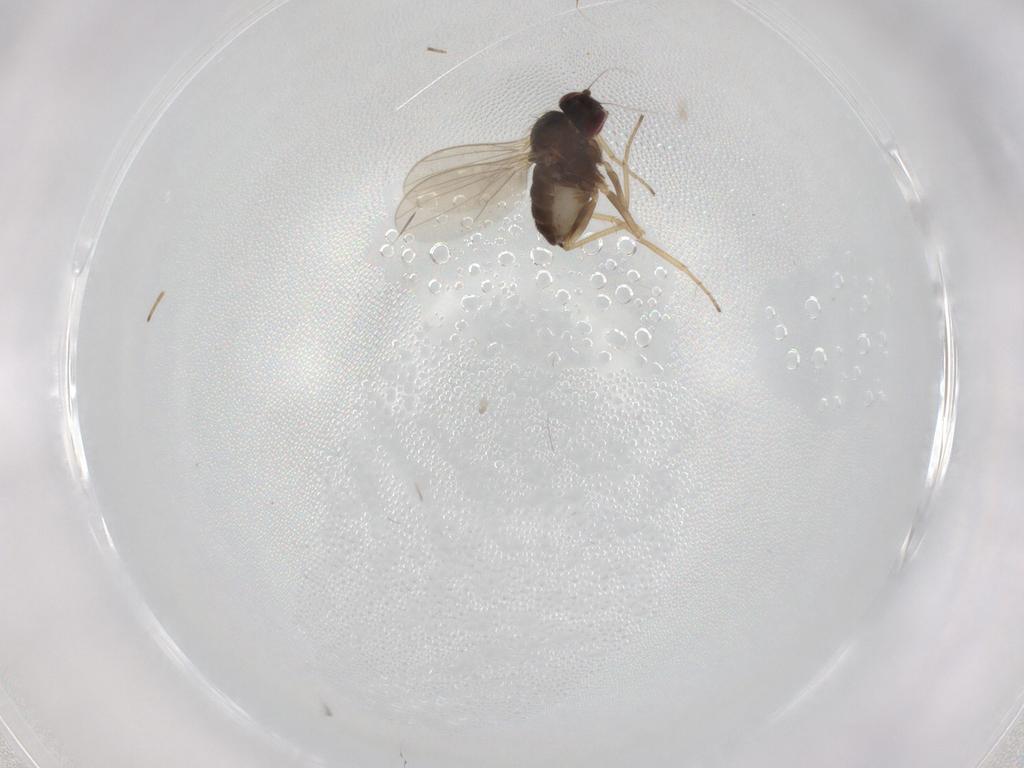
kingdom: Animalia
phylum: Arthropoda
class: Insecta
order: Diptera
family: Dolichopodidae
